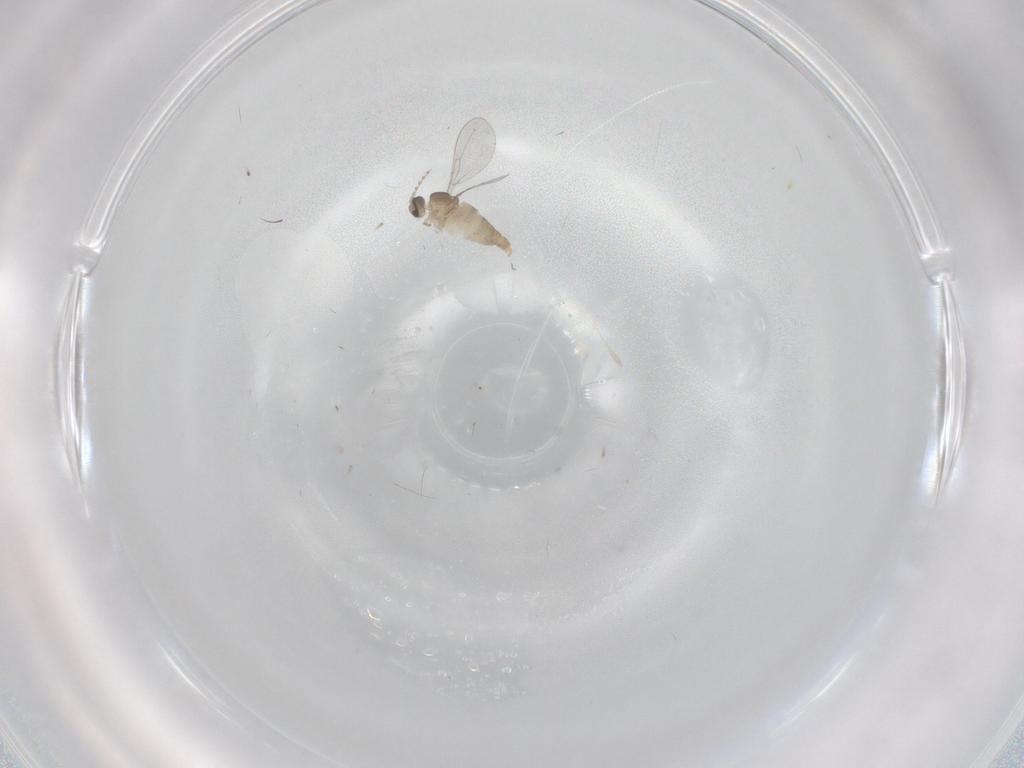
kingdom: Animalia
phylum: Arthropoda
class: Insecta
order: Diptera
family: Cecidomyiidae
